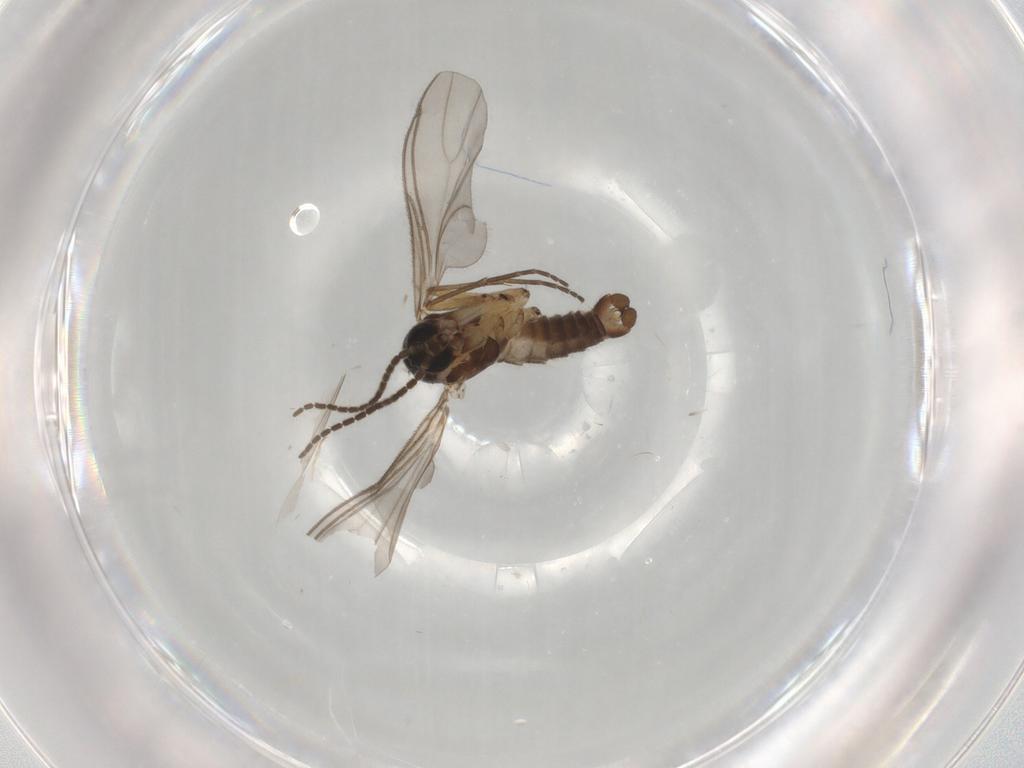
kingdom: Animalia
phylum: Arthropoda
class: Insecta
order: Diptera
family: Sciaridae
